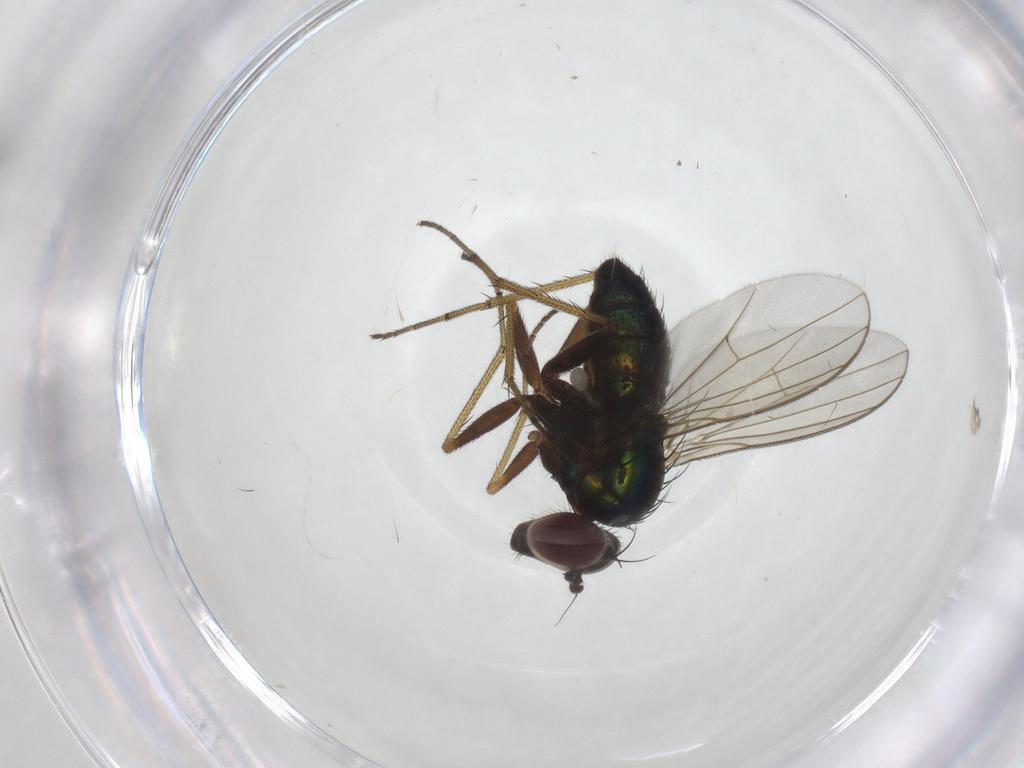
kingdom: Animalia
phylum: Arthropoda
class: Insecta
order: Diptera
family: Dolichopodidae
